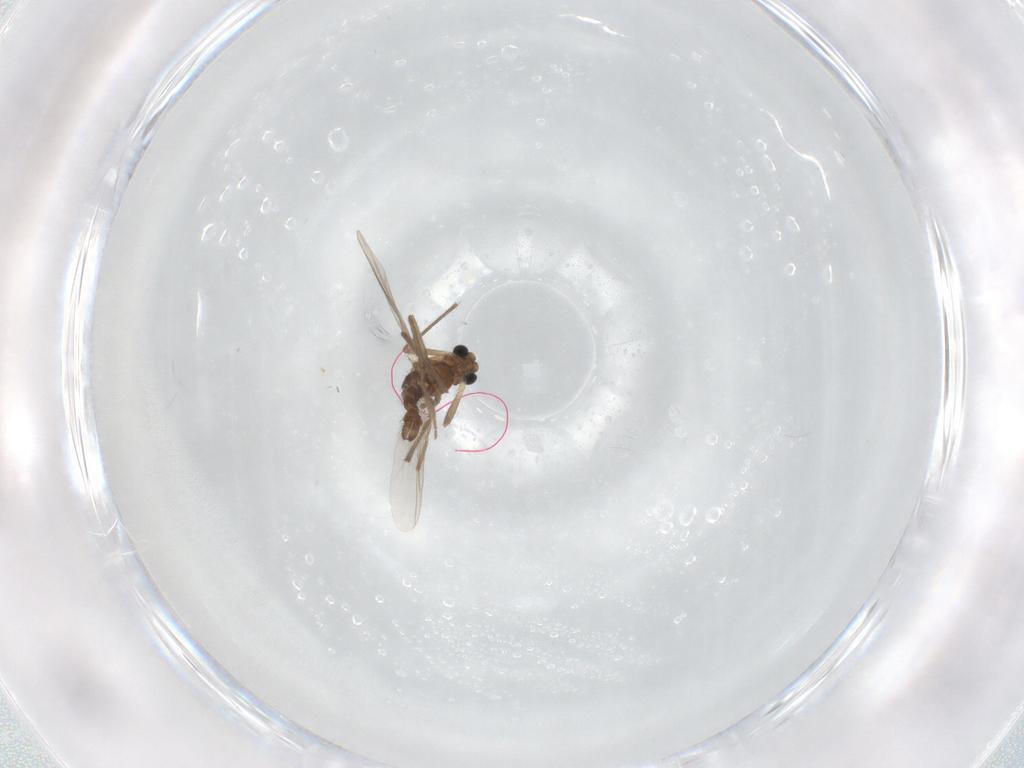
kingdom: Animalia
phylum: Arthropoda
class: Insecta
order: Diptera
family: Chironomidae
